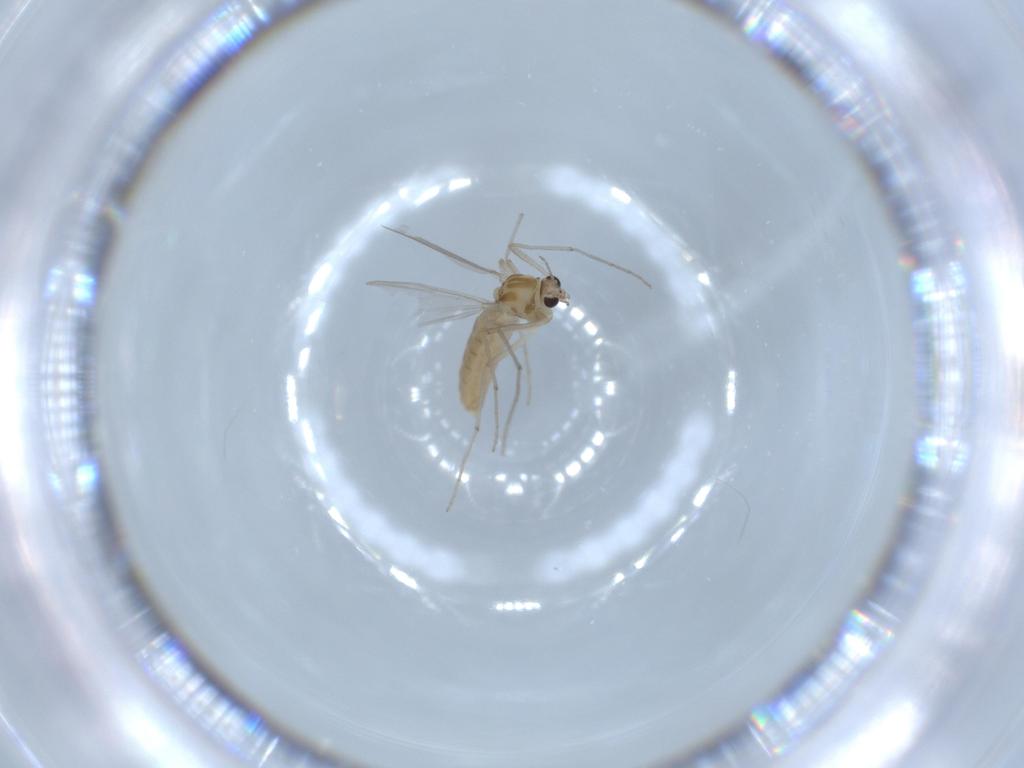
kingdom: Animalia
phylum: Arthropoda
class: Insecta
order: Diptera
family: Chironomidae
